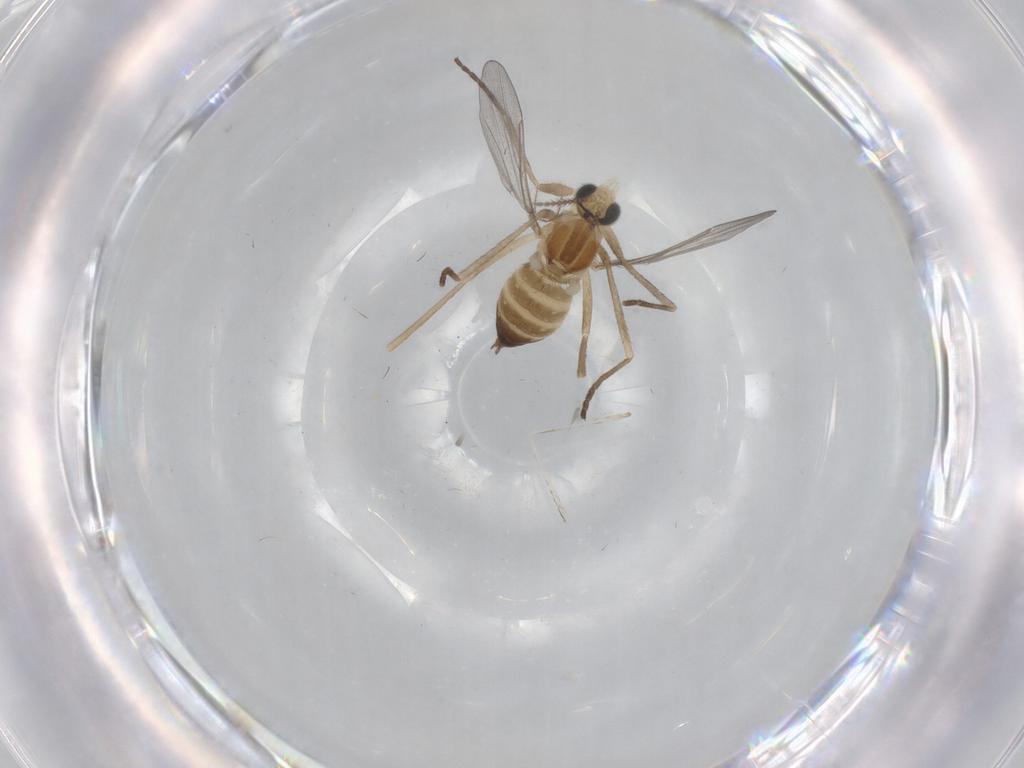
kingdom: Animalia
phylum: Arthropoda
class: Insecta
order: Diptera
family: Cecidomyiidae
